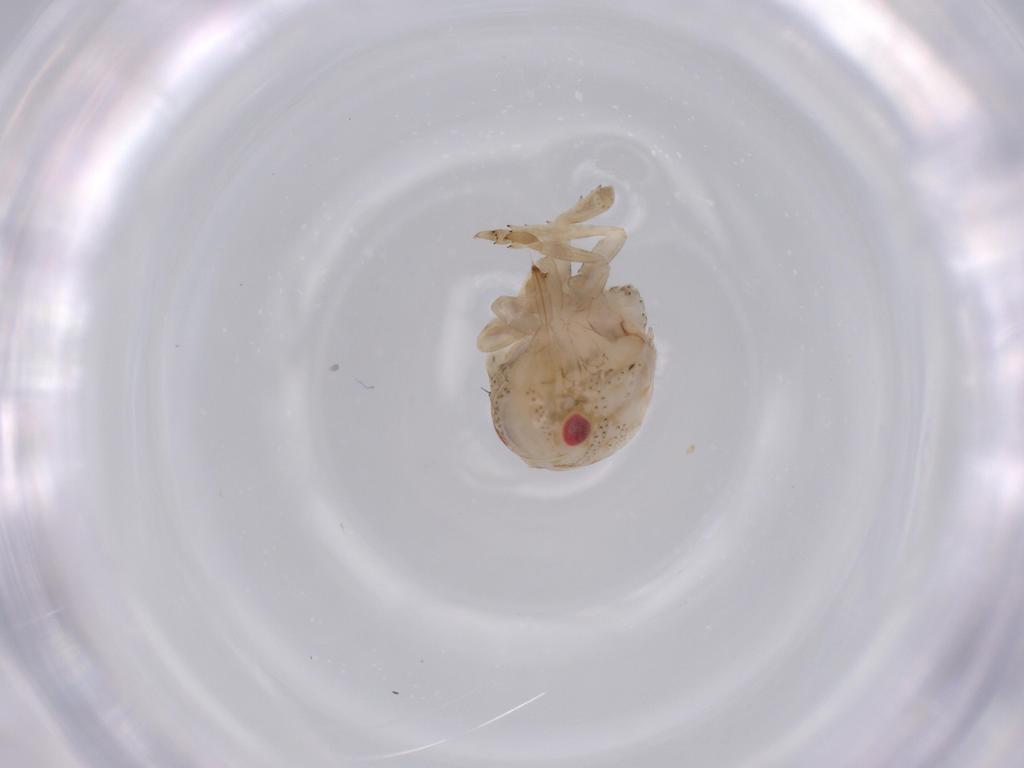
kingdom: Animalia
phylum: Arthropoda
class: Insecta
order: Hemiptera
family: Acanaloniidae
